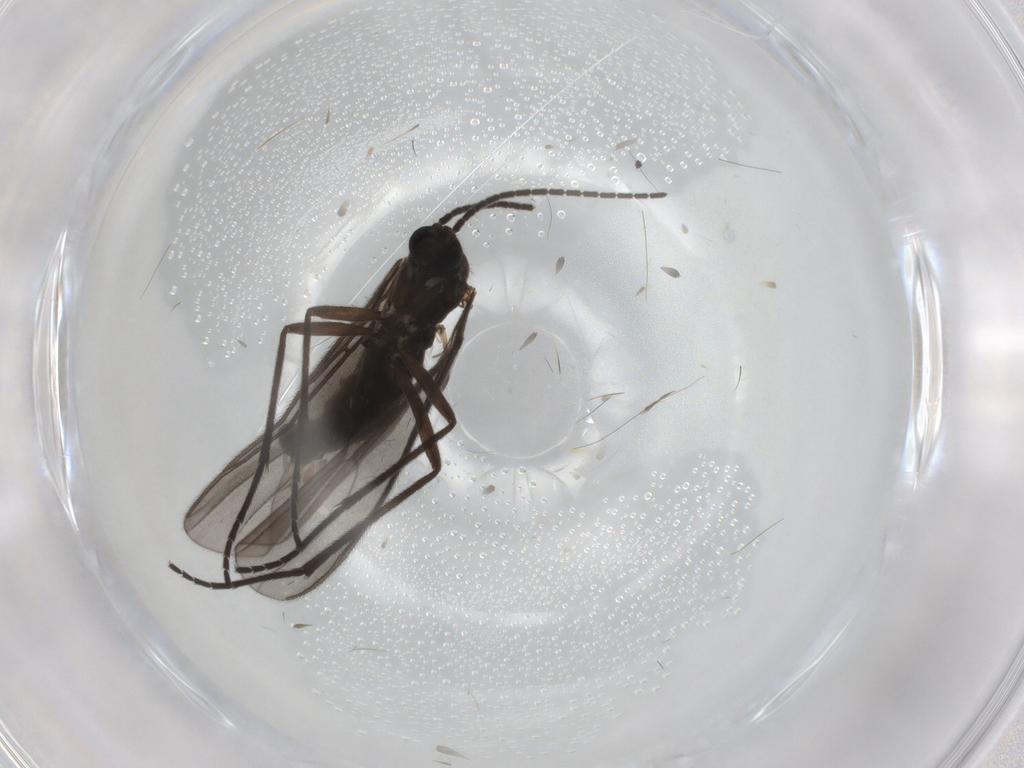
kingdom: Animalia
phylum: Arthropoda
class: Insecta
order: Diptera
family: Sciaridae
